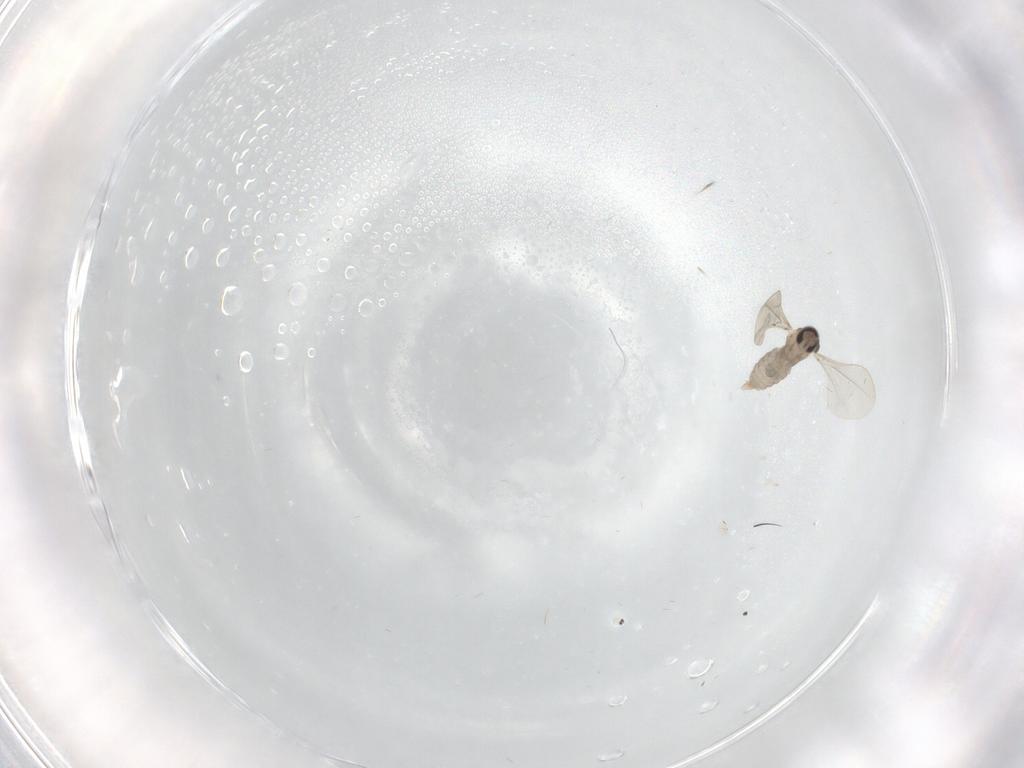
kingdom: Animalia
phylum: Arthropoda
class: Insecta
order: Diptera
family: Cecidomyiidae
